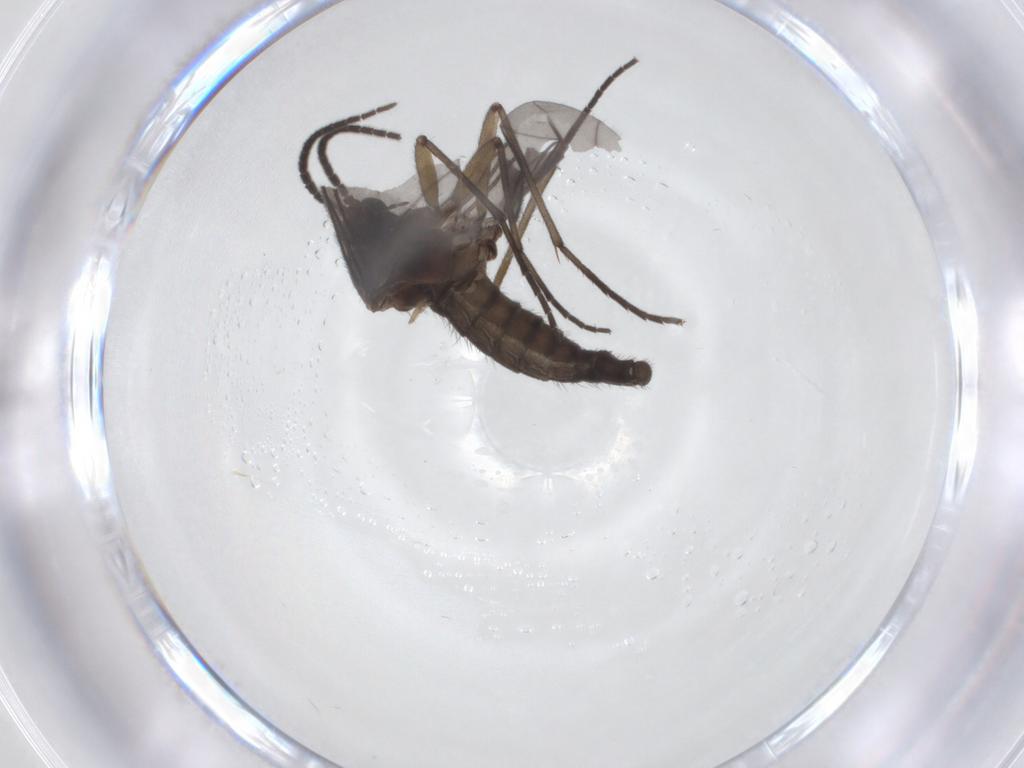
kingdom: Animalia
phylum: Arthropoda
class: Insecta
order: Diptera
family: Sciaridae
